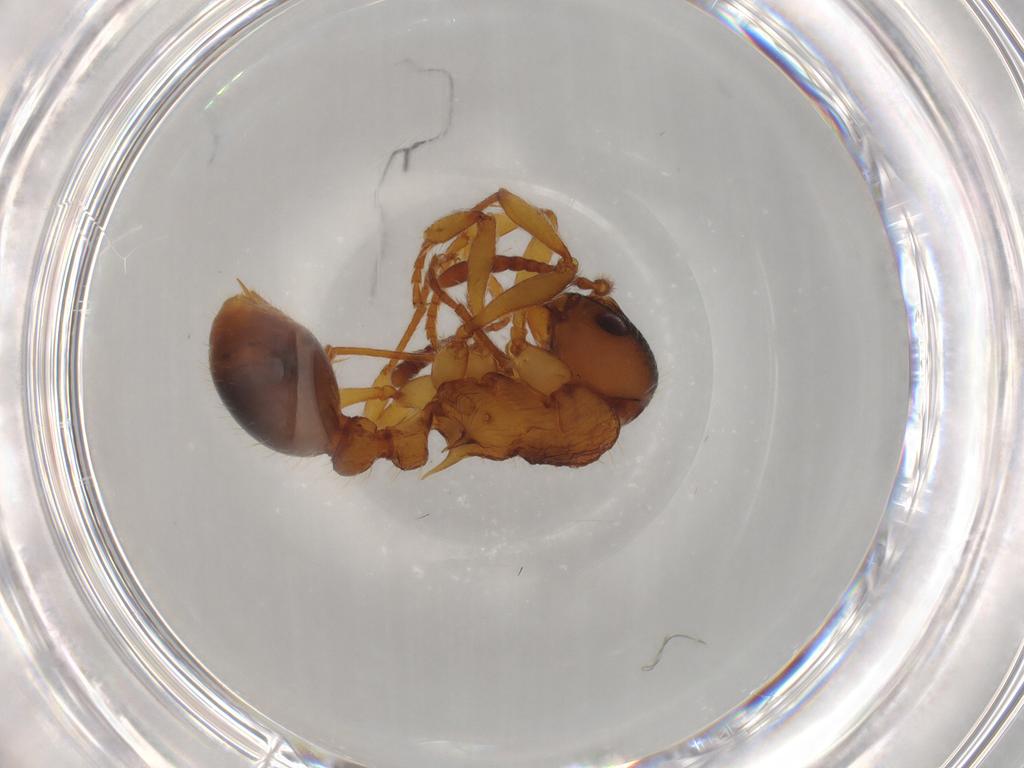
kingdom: Animalia
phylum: Arthropoda
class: Insecta
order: Hymenoptera
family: Formicidae
